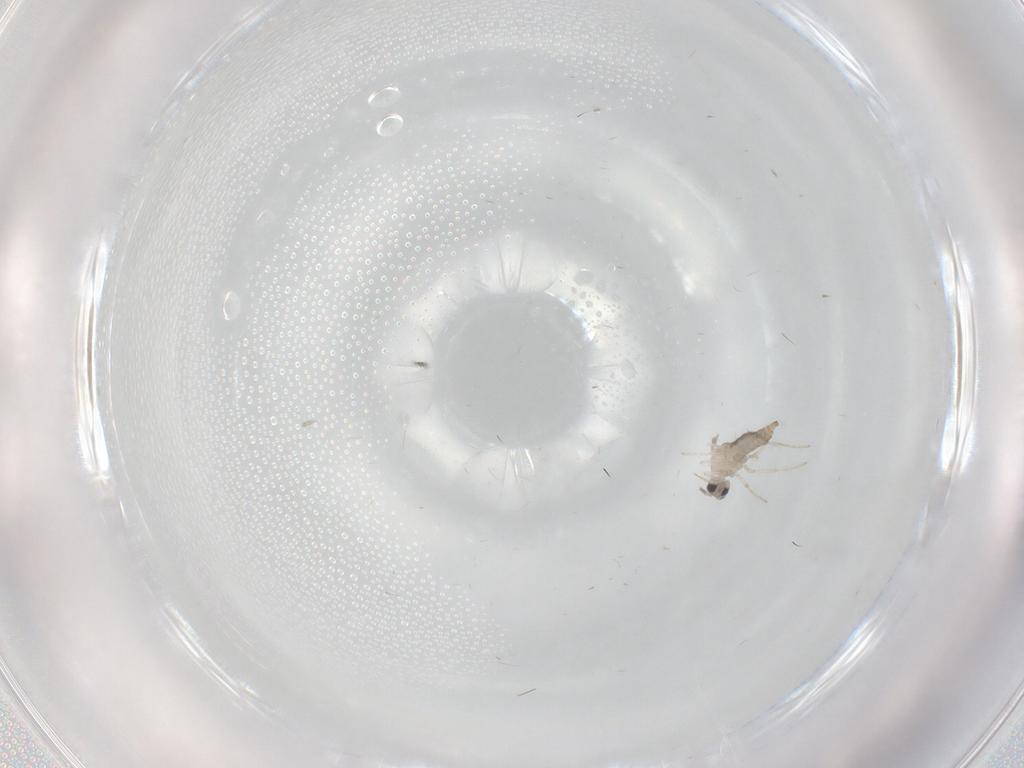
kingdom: Animalia
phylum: Arthropoda
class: Insecta
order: Diptera
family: Cecidomyiidae
